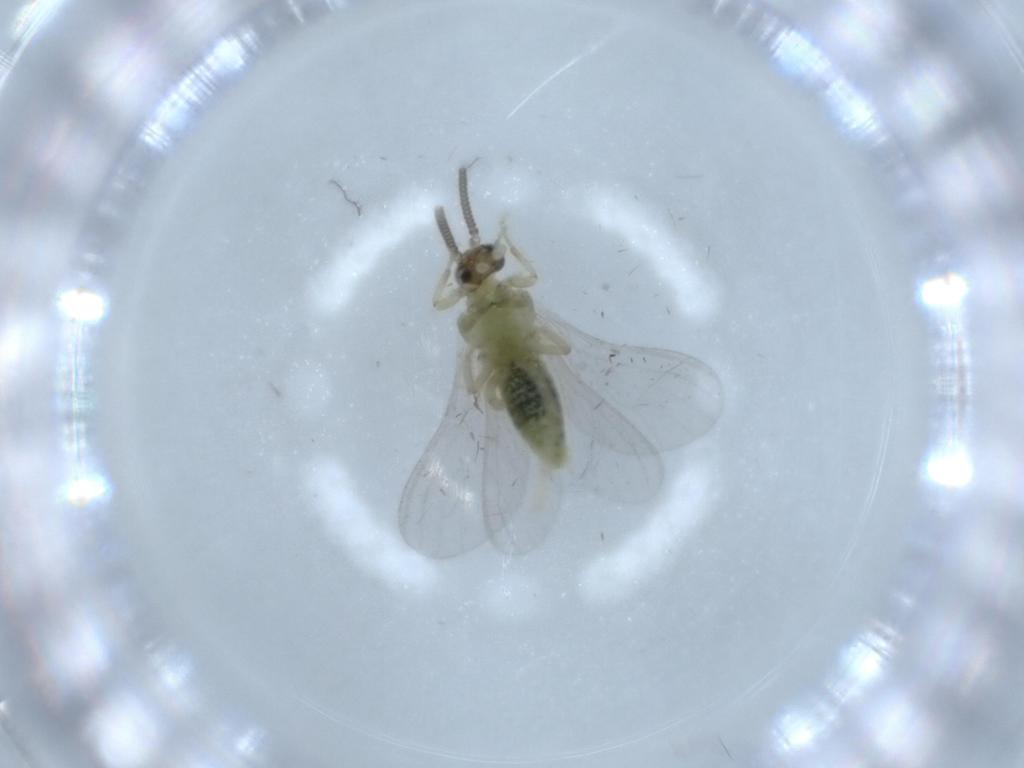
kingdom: Animalia
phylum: Arthropoda
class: Insecta
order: Neuroptera
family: Coniopterygidae
